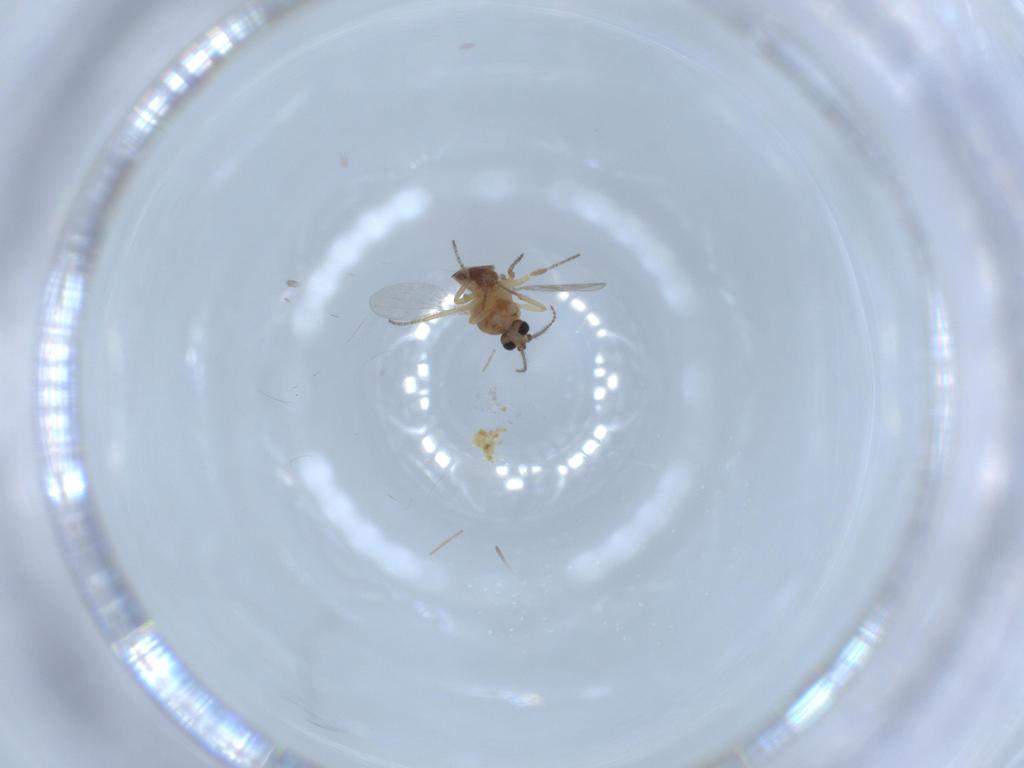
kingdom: Animalia
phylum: Arthropoda
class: Insecta
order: Diptera
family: Ceratopogonidae
